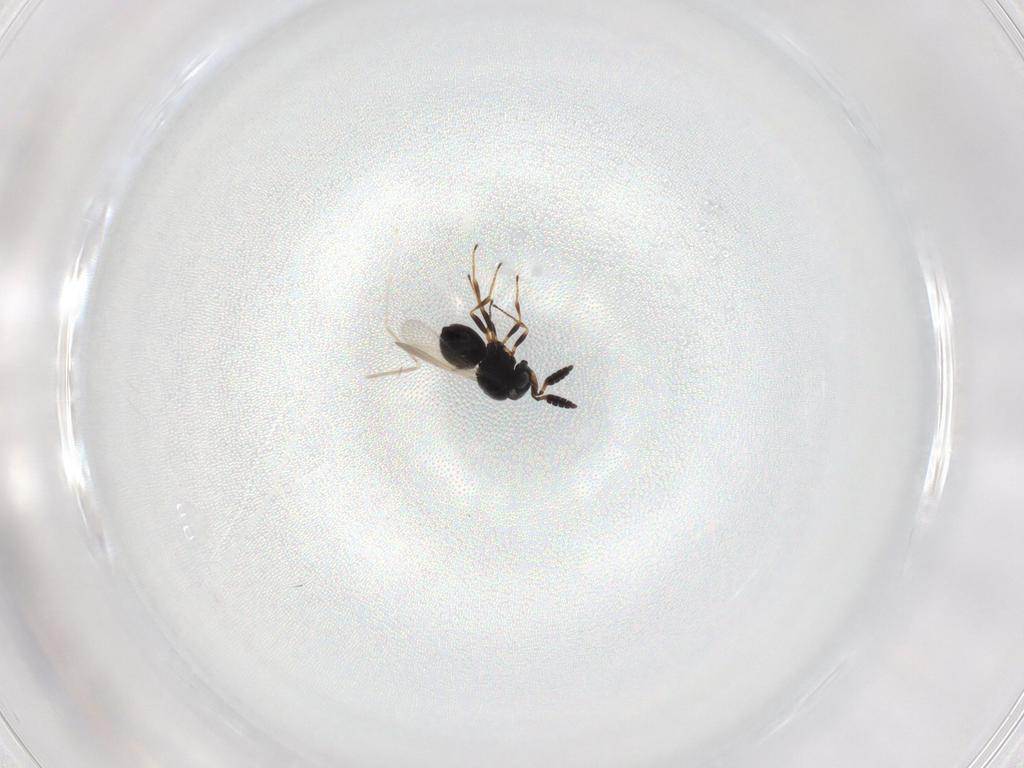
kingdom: Animalia
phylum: Arthropoda
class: Insecta
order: Hymenoptera
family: Scelionidae
